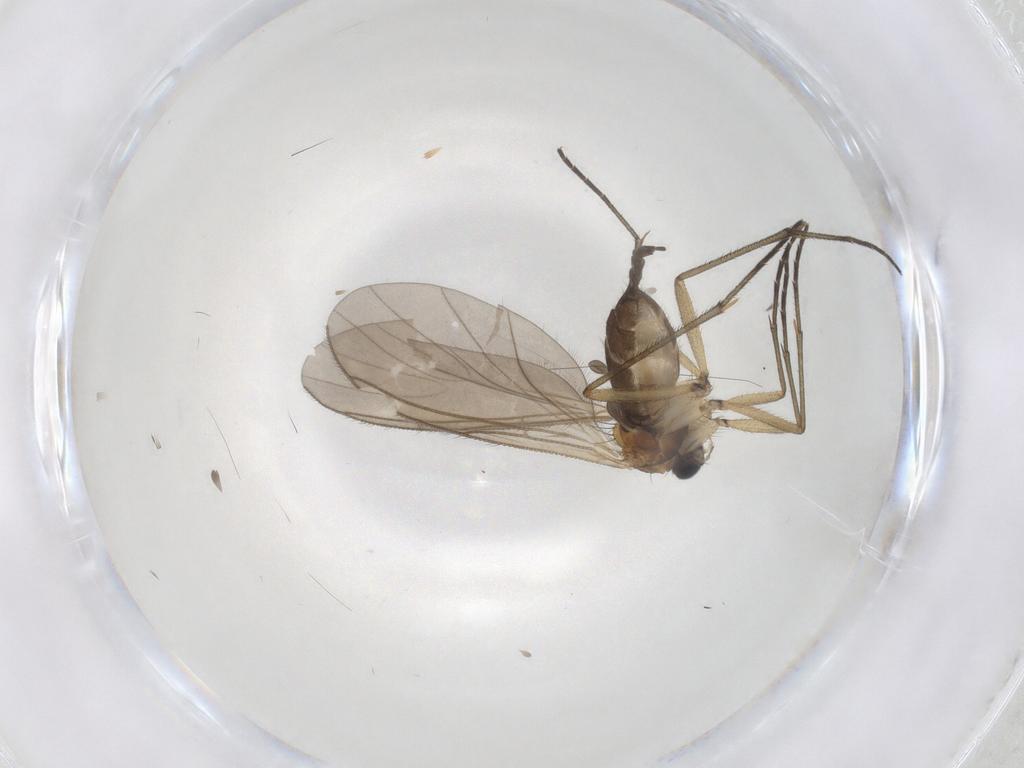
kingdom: Animalia
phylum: Arthropoda
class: Insecta
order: Diptera
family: Sciaridae
